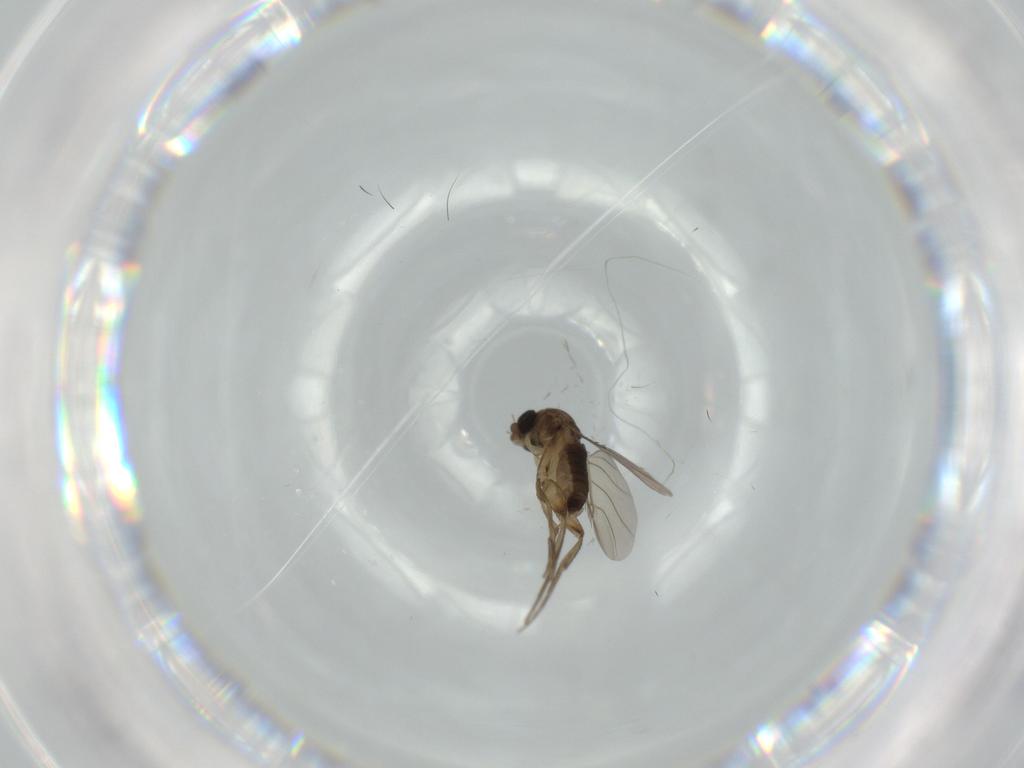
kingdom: Animalia
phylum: Arthropoda
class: Insecta
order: Diptera
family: Phoridae
